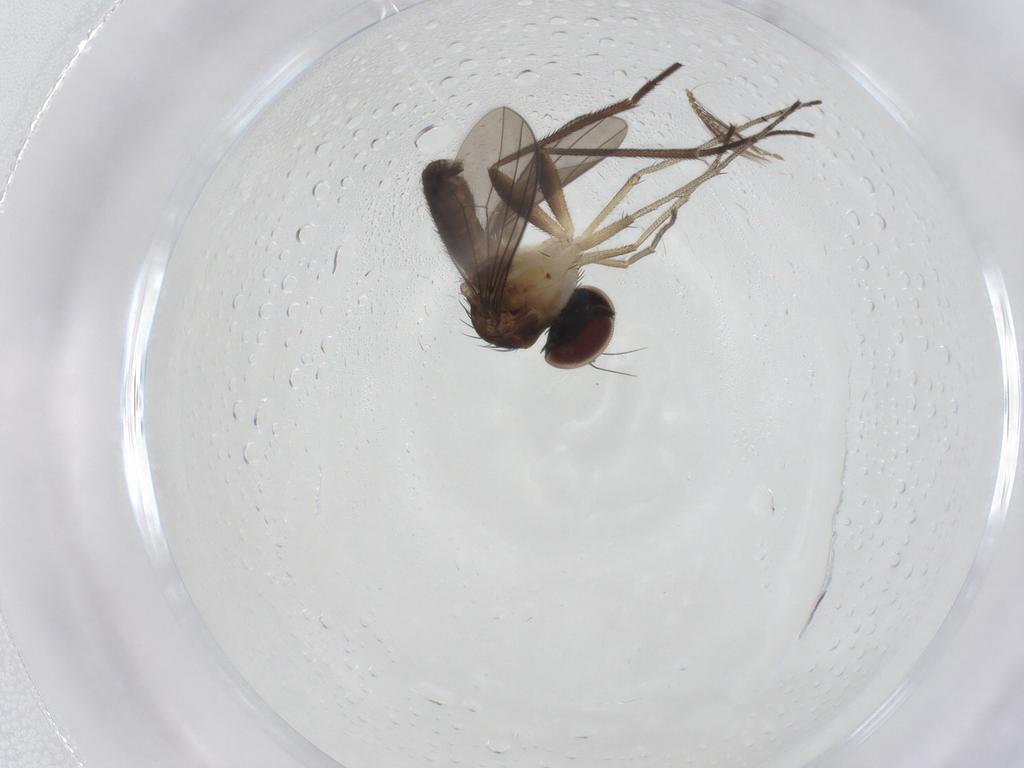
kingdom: Animalia
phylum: Arthropoda
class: Insecta
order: Diptera
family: Dolichopodidae
